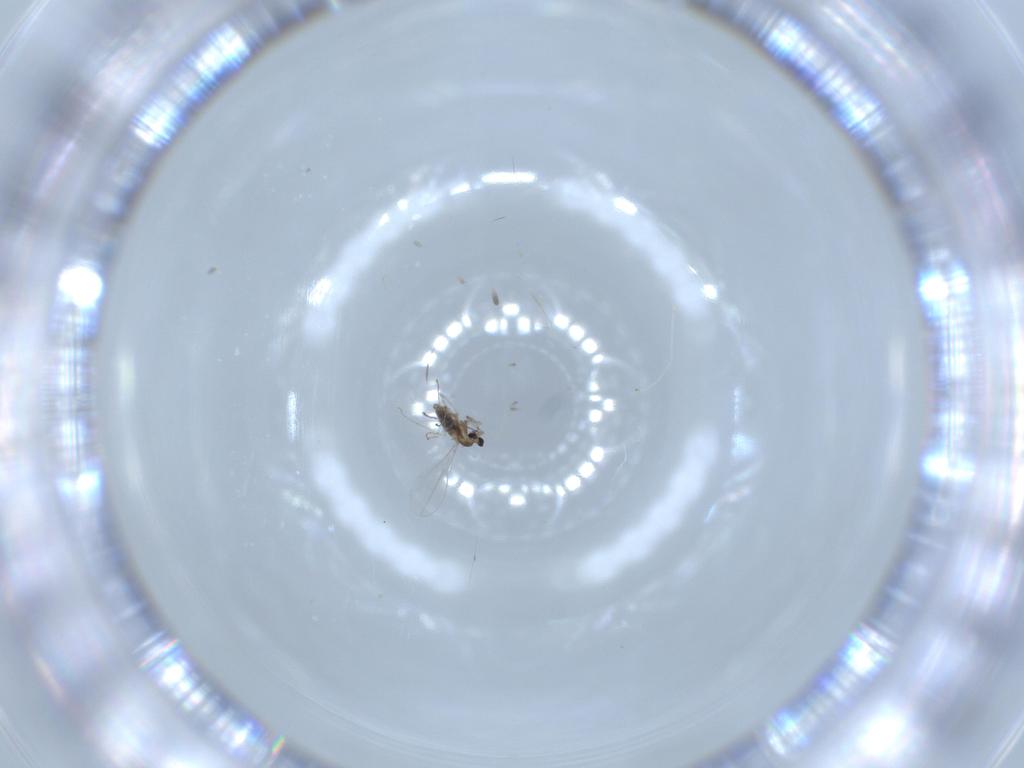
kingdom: Animalia
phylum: Arthropoda
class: Insecta
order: Diptera
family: Cecidomyiidae
